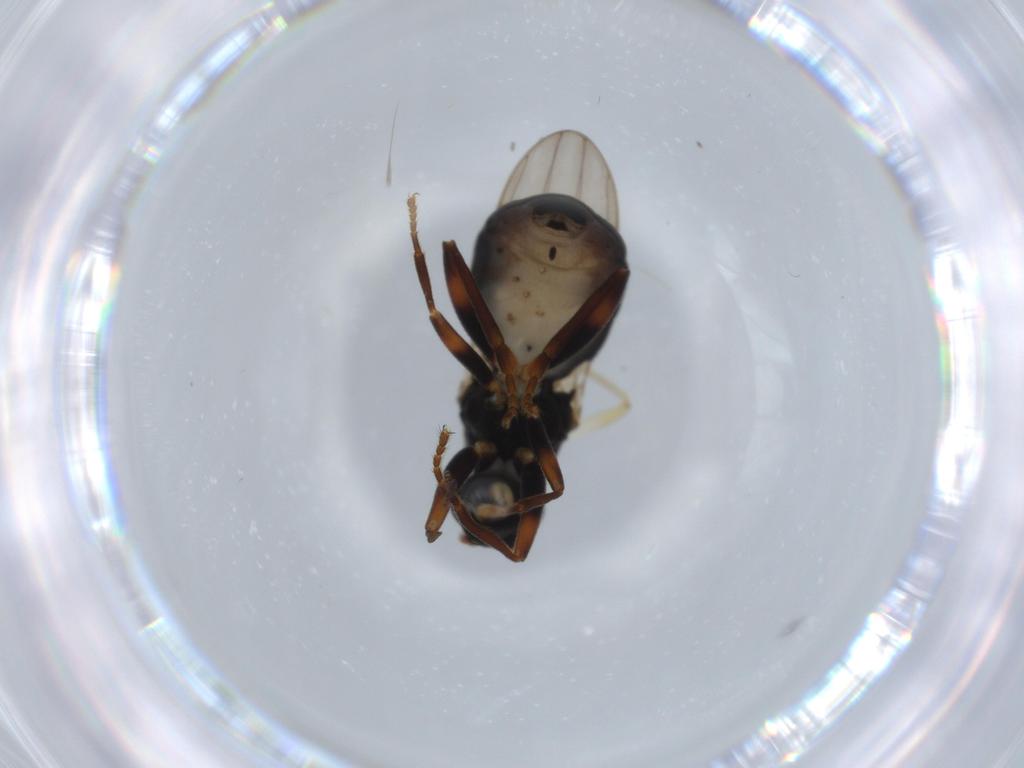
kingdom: Animalia
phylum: Arthropoda
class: Insecta
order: Diptera
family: Sphaeroceridae
